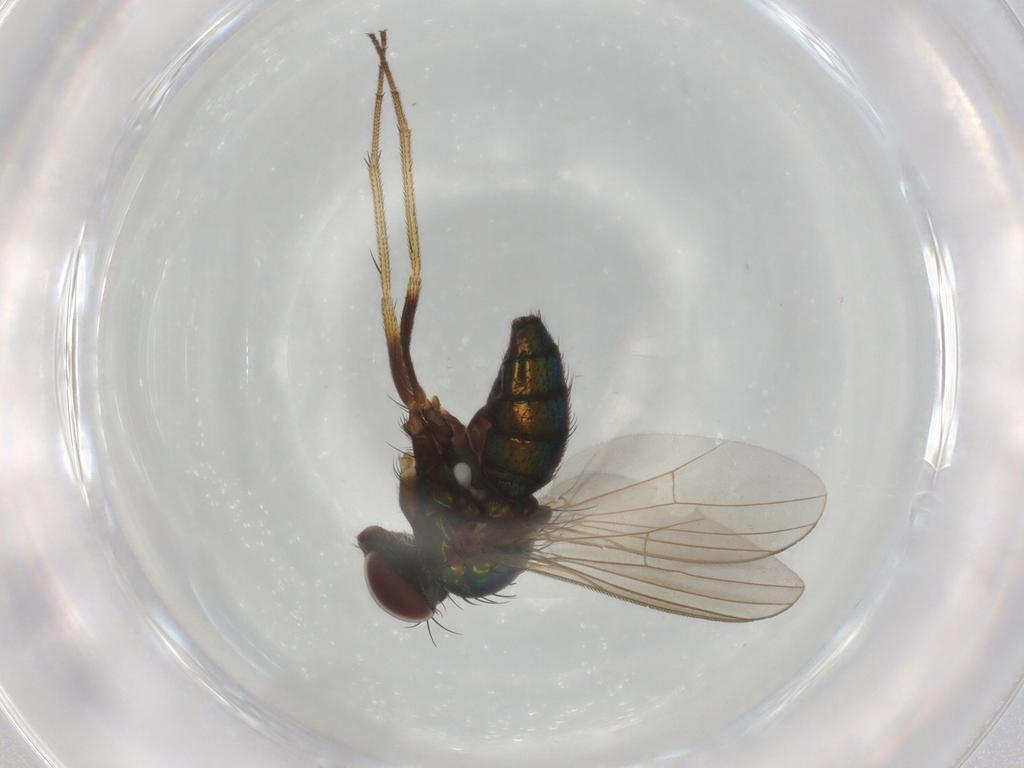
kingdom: Animalia
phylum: Arthropoda
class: Insecta
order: Diptera
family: Dolichopodidae
